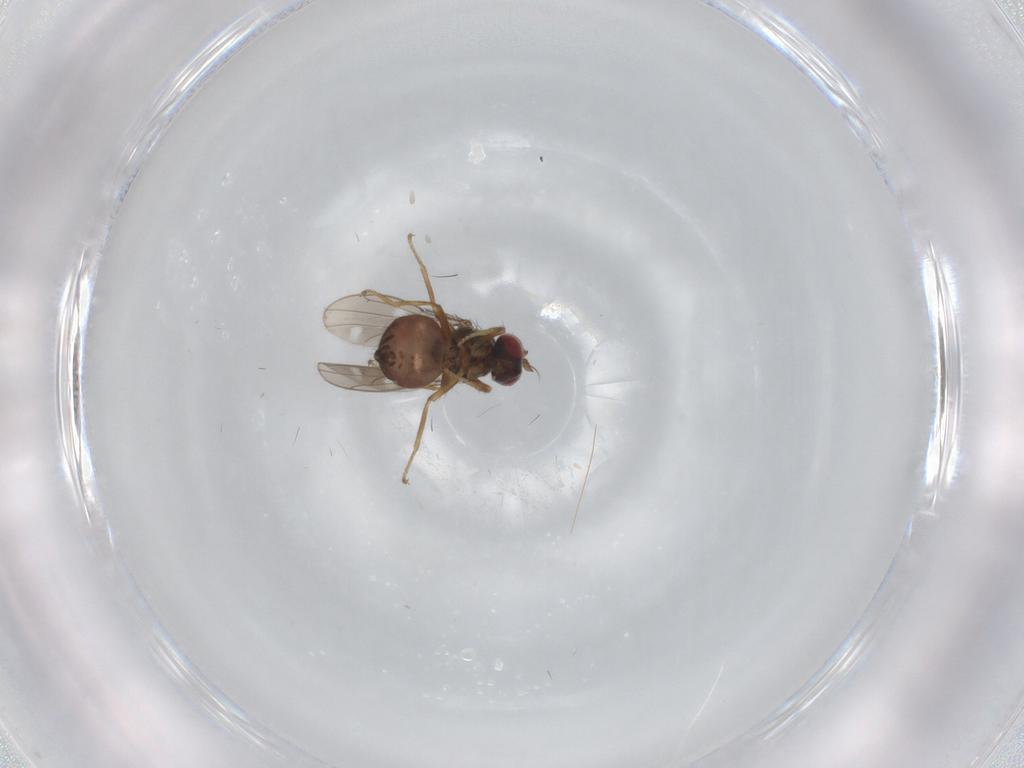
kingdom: Animalia
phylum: Arthropoda
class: Insecta
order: Diptera
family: Ephydridae
